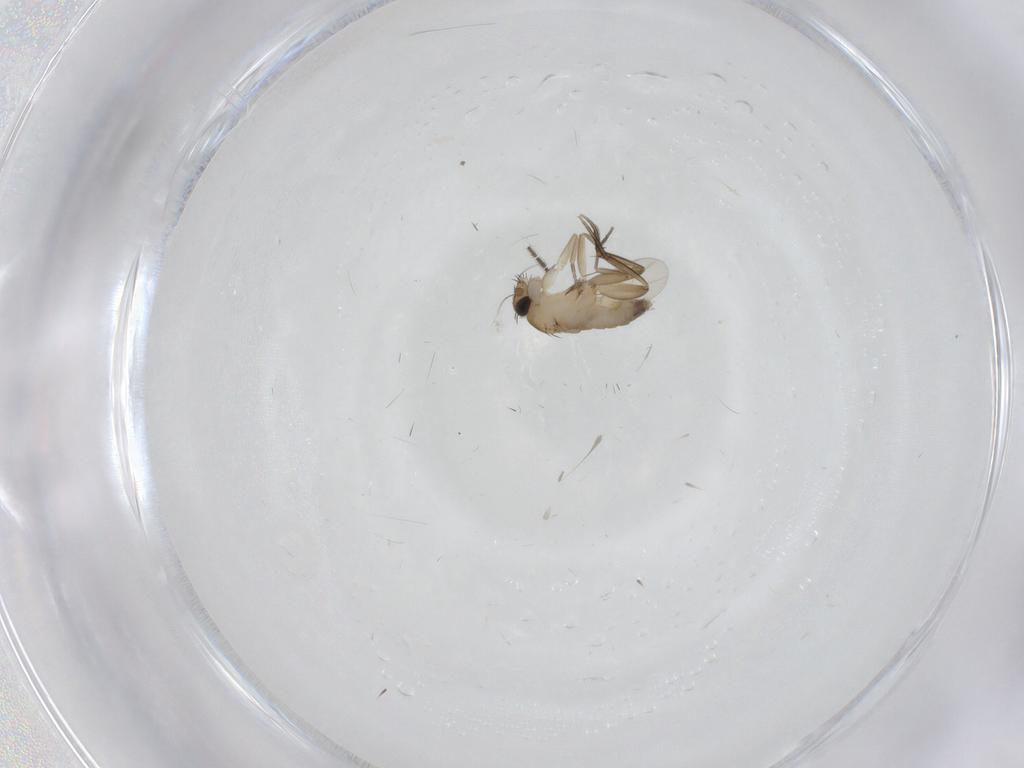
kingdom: Animalia
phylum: Arthropoda
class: Insecta
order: Diptera
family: Phoridae
